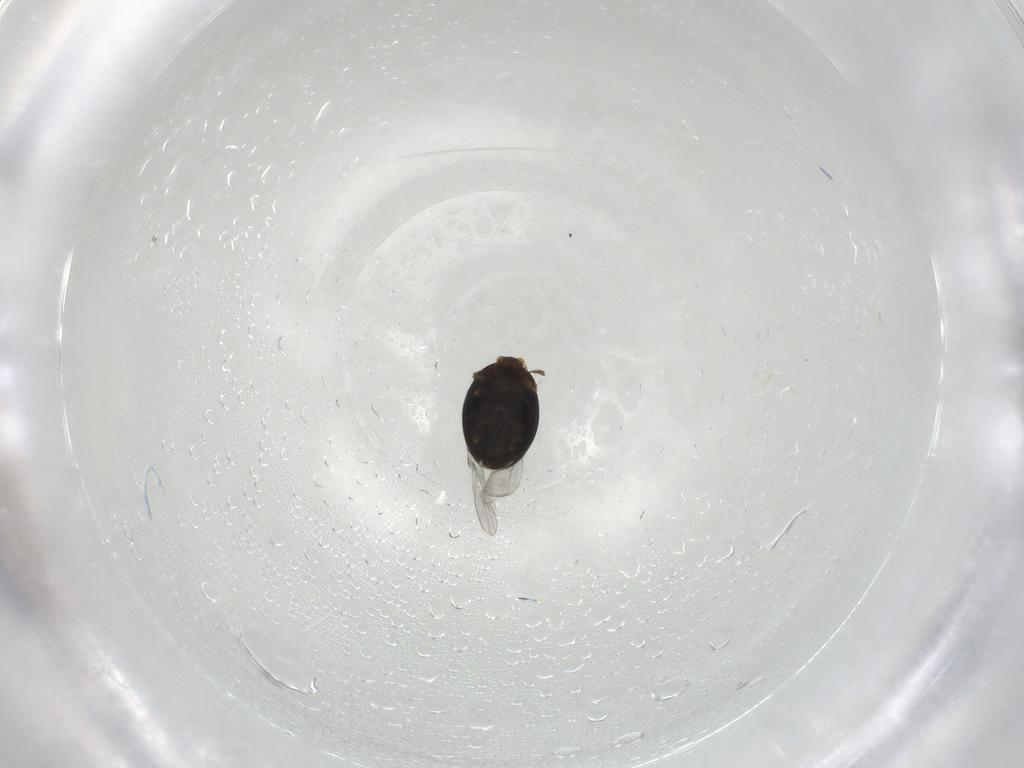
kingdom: Animalia
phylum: Arthropoda
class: Insecta
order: Coleoptera
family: Corylophidae
